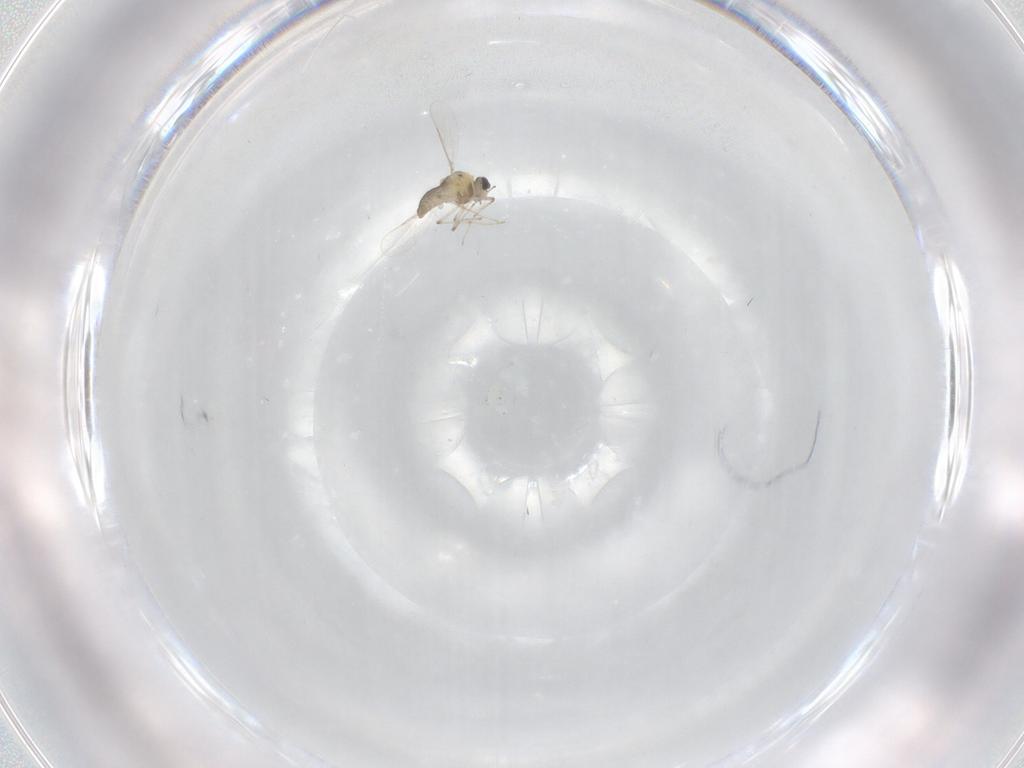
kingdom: Animalia
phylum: Arthropoda
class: Insecta
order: Diptera
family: Chironomidae
